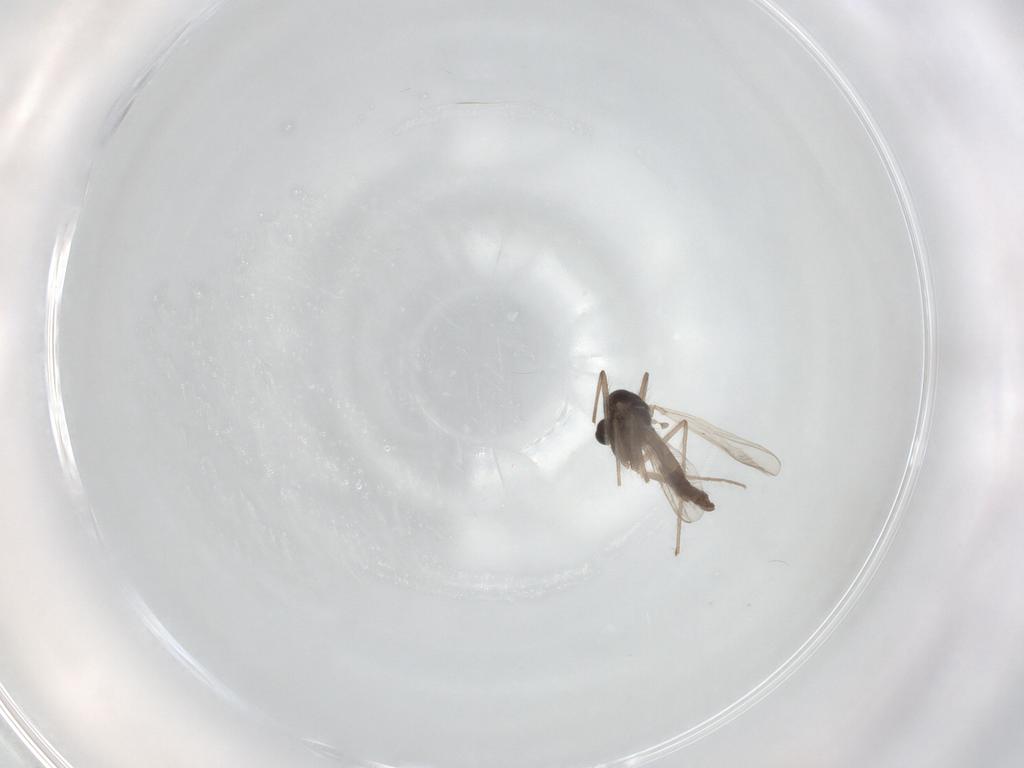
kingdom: Animalia
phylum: Arthropoda
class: Insecta
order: Diptera
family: Chironomidae
